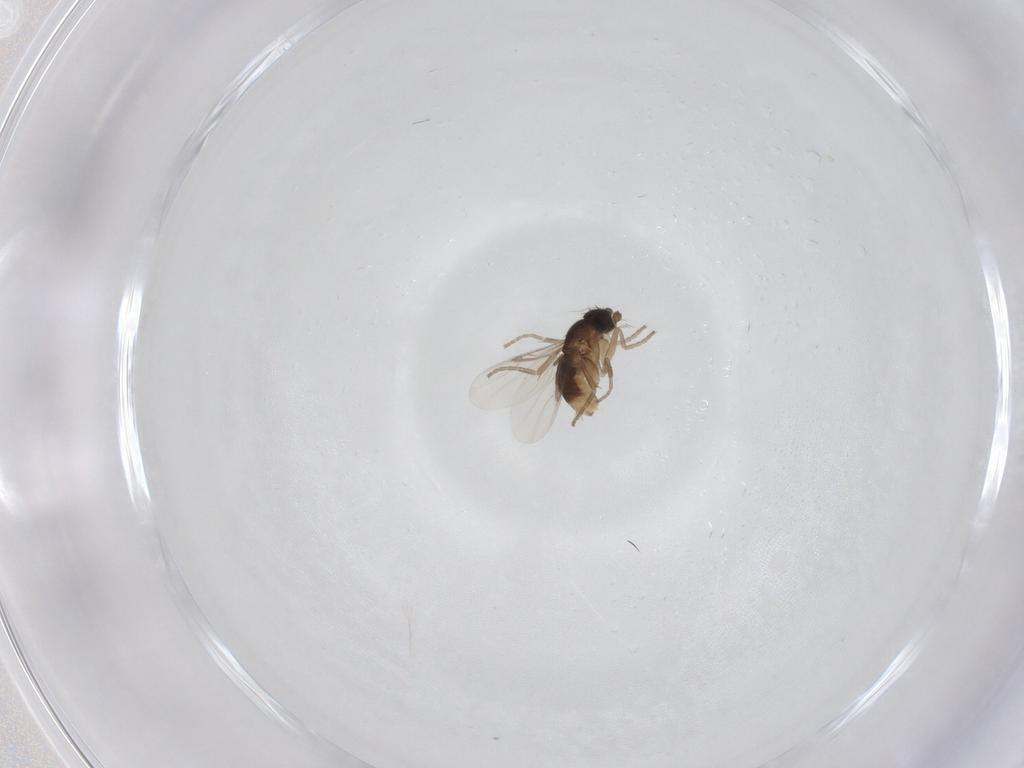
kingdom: Animalia
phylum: Arthropoda
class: Insecta
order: Diptera
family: Phoridae
